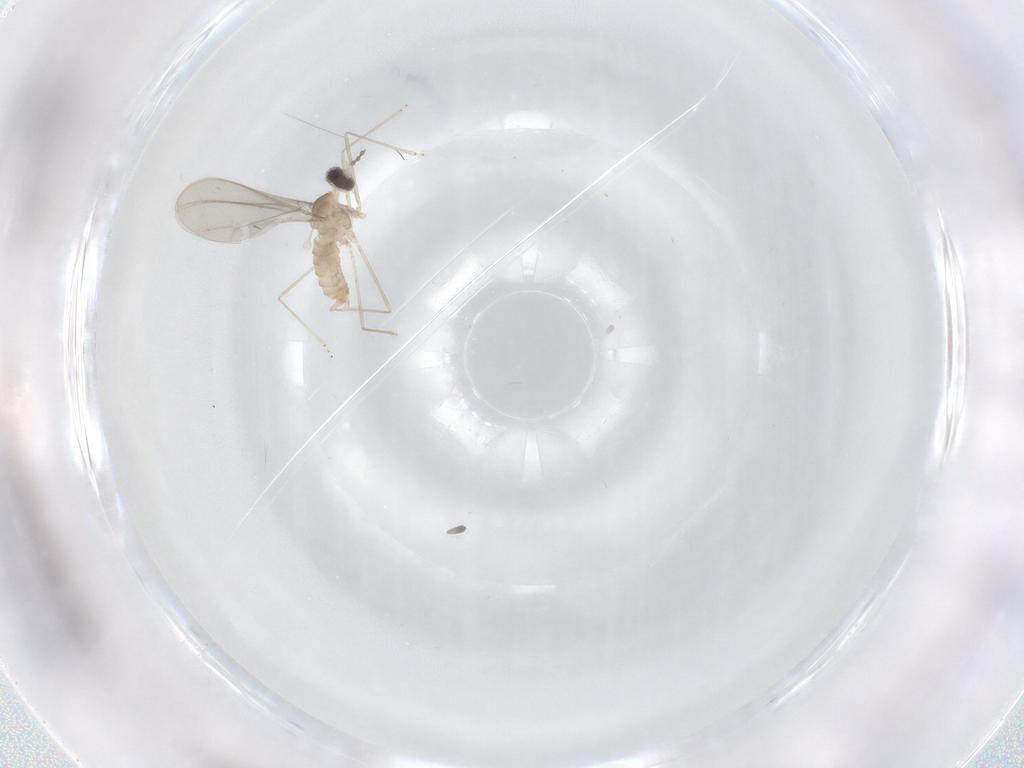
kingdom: Animalia
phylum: Arthropoda
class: Insecta
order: Diptera
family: Cecidomyiidae
